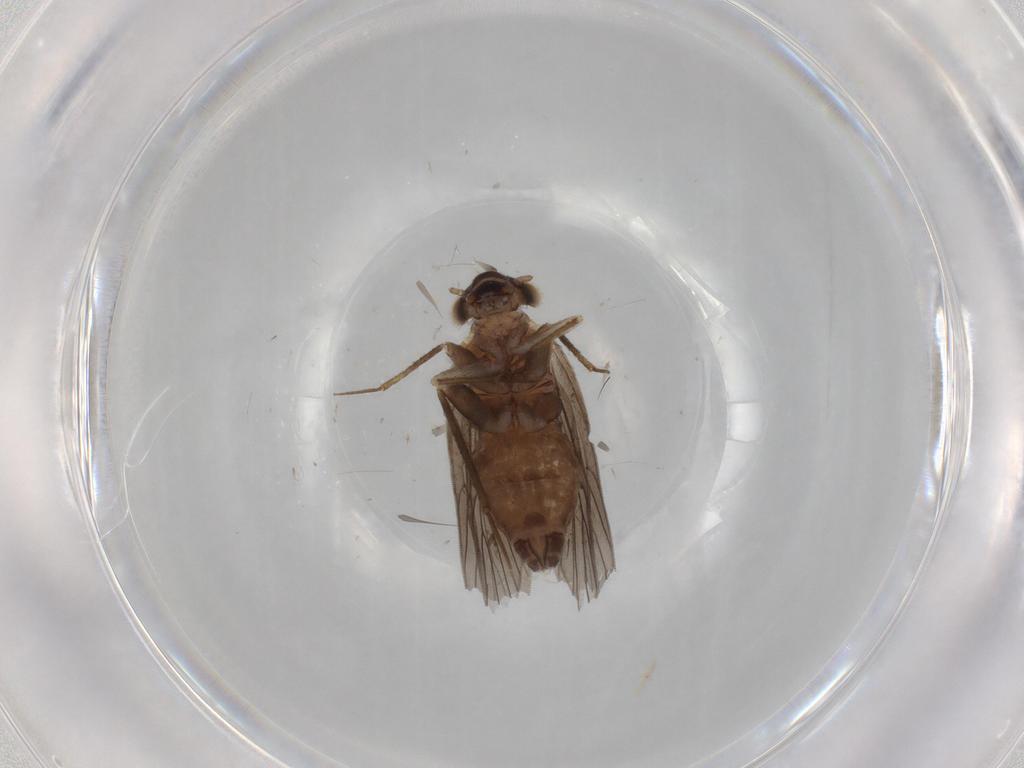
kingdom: Animalia
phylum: Arthropoda
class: Insecta
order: Psocodea
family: Lepidopsocidae
